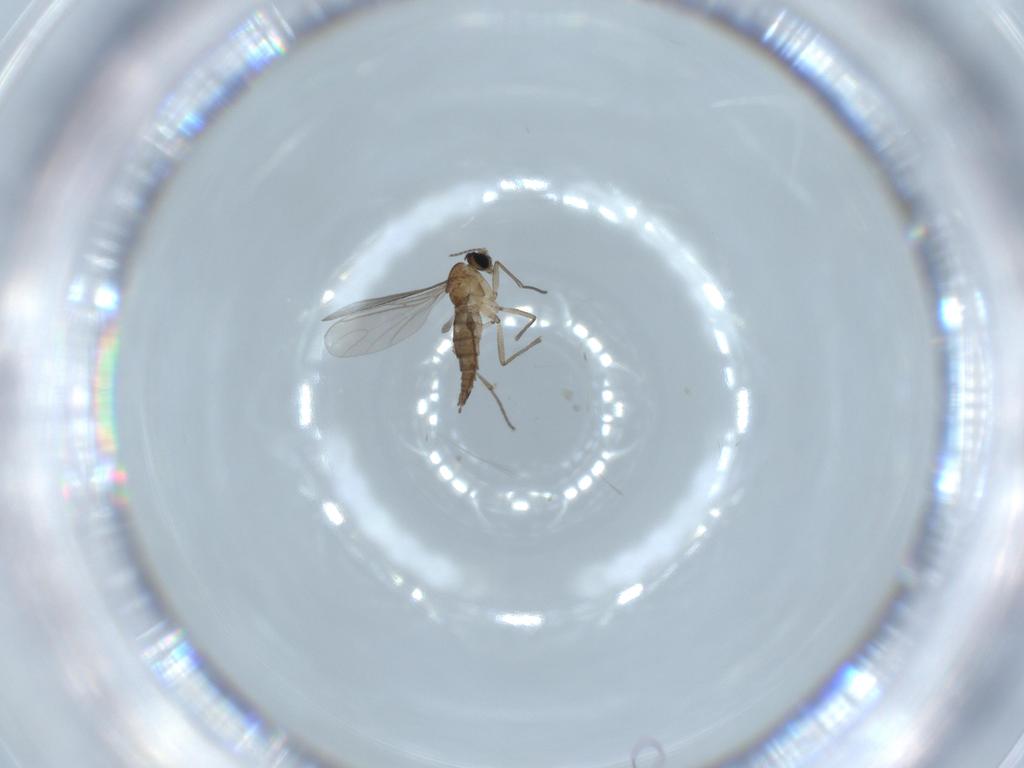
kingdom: Animalia
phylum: Arthropoda
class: Insecta
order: Diptera
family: Sciaridae
